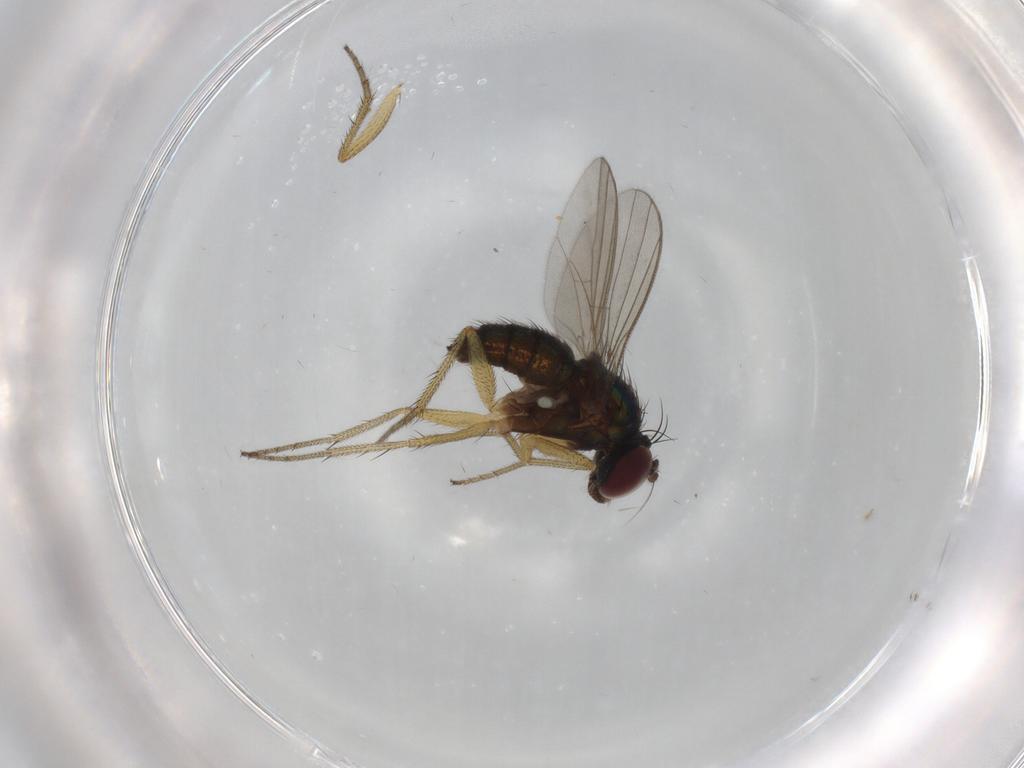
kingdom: Animalia
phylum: Arthropoda
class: Insecta
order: Diptera
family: Dolichopodidae
